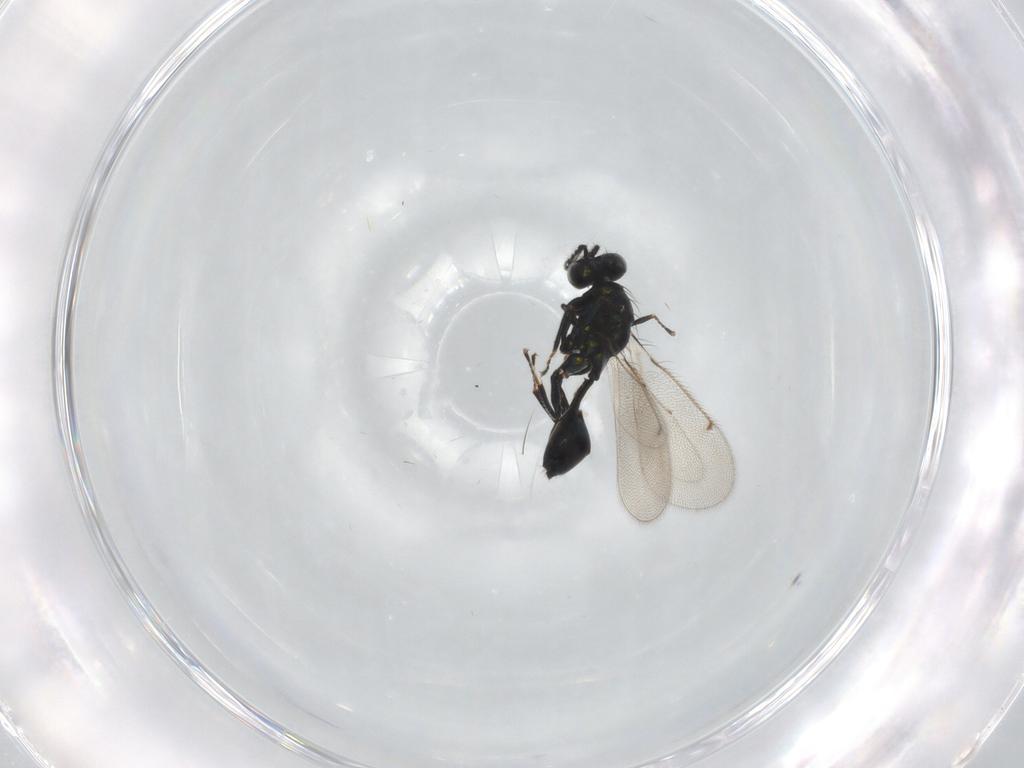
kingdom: Animalia
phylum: Arthropoda
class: Insecta
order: Hymenoptera
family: Eulophidae
